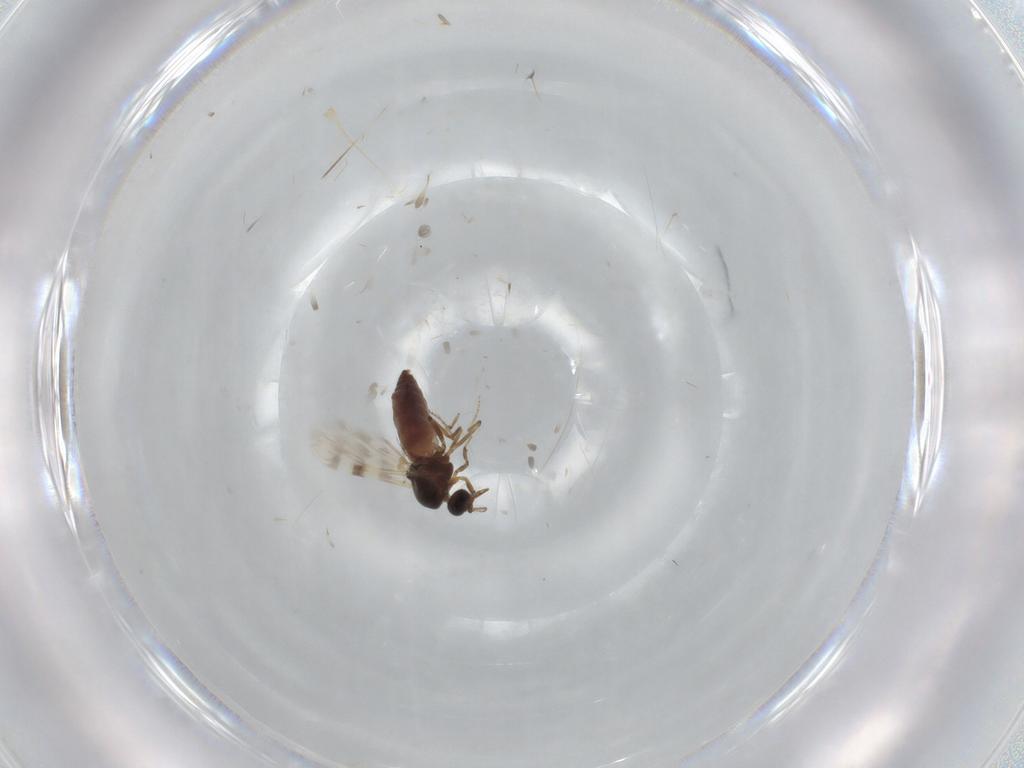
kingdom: Animalia
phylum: Arthropoda
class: Insecta
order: Diptera
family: Ceratopogonidae
